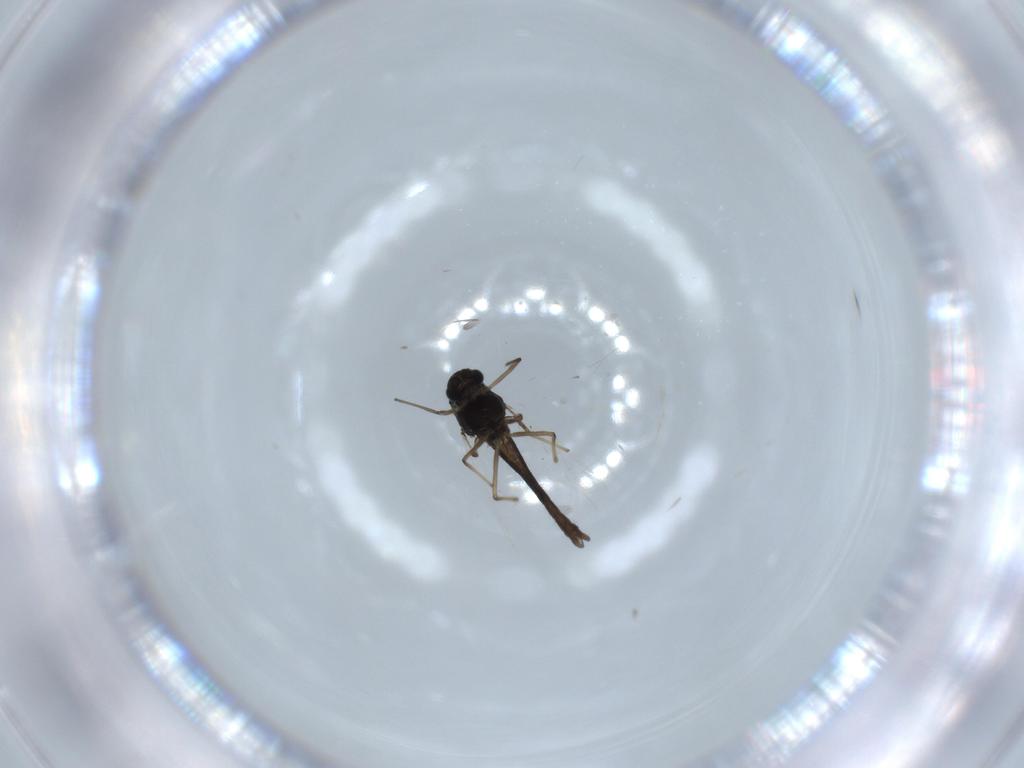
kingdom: Animalia
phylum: Arthropoda
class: Insecta
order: Diptera
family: Chironomidae
